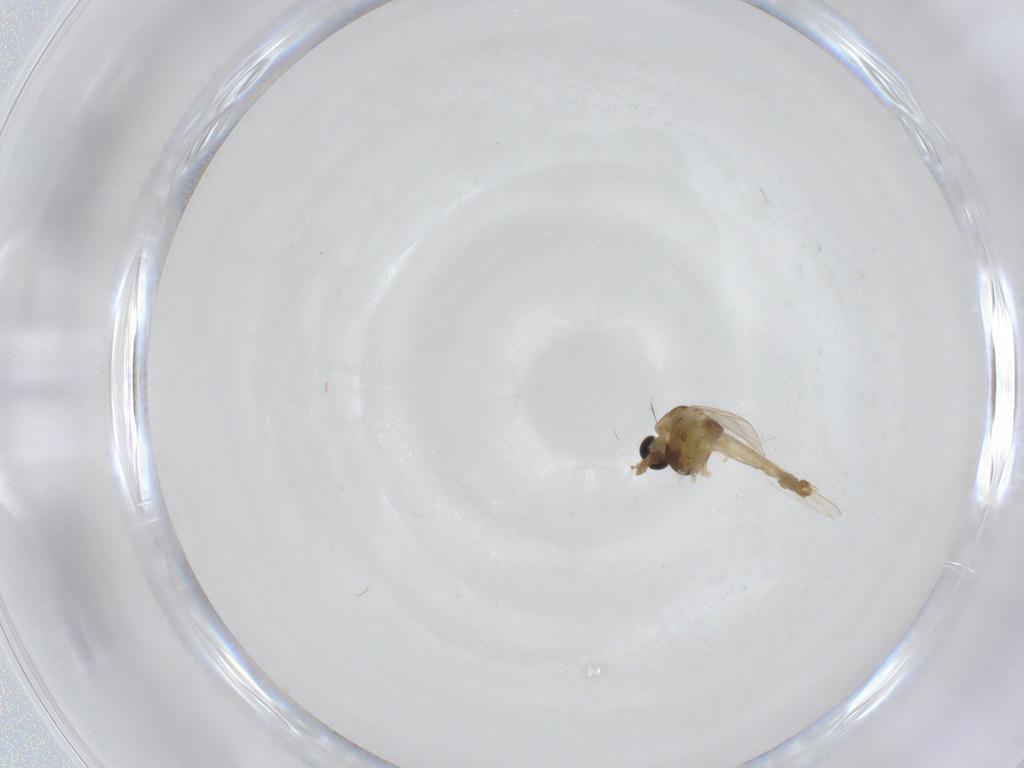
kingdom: Animalia
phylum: Arthropoda
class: Insecta
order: Diptera
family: Chironomidae
